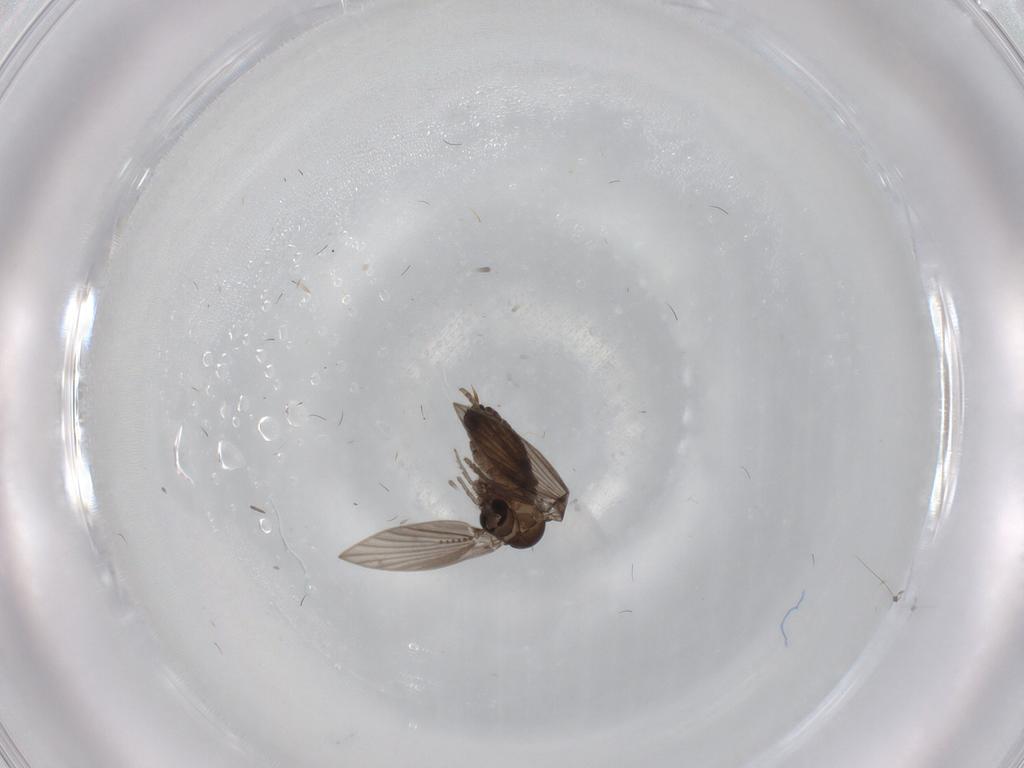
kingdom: Animalia
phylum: Arthropoda
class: Insecta
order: Diptera
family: Psychodidae
